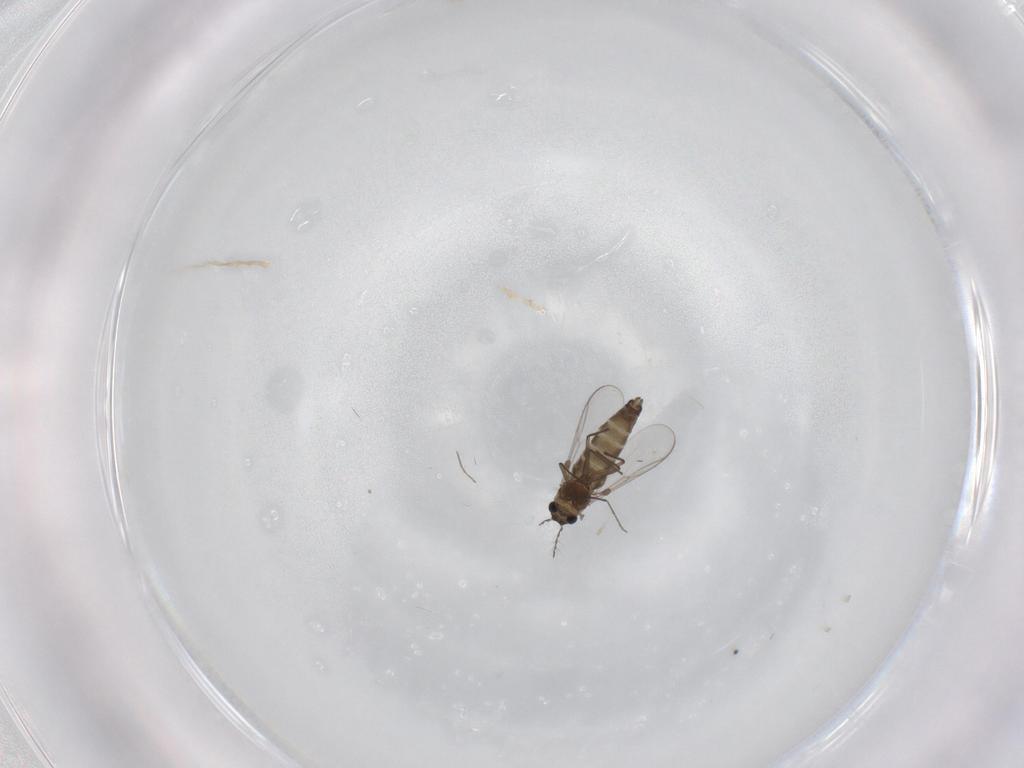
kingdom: Animalia
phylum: Arthropoda
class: Insecta
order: Diptera
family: Chironomidae
